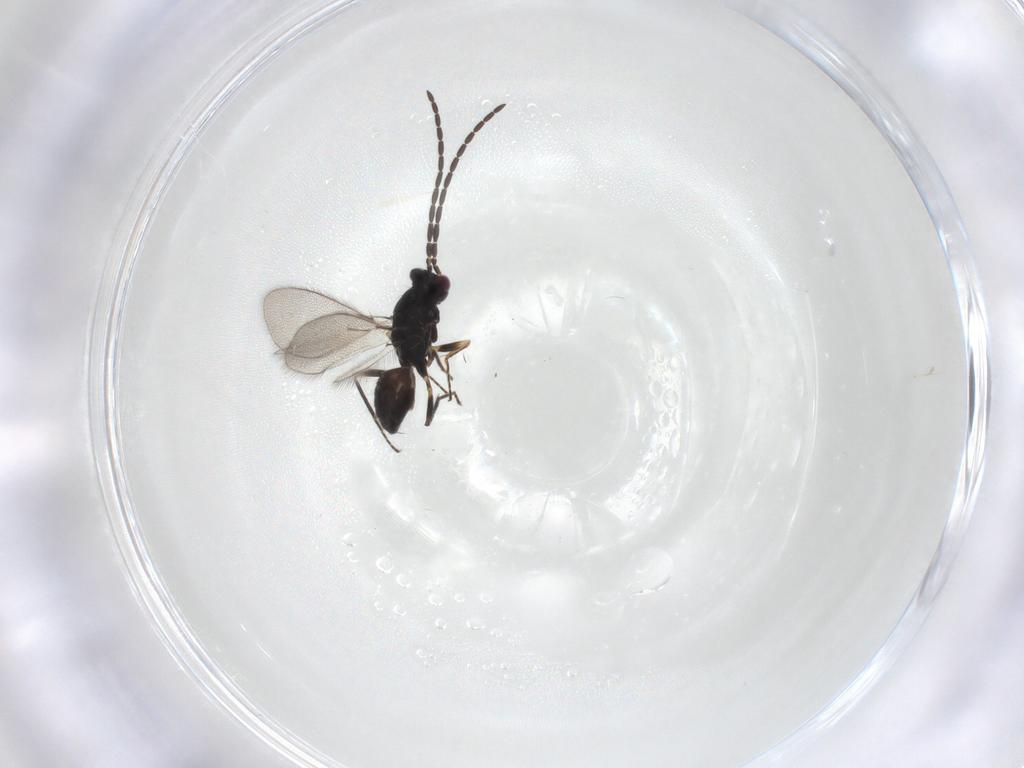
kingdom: Animalia
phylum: Arthropoda
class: Insecta
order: Hymenoptera
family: Mymaridae
